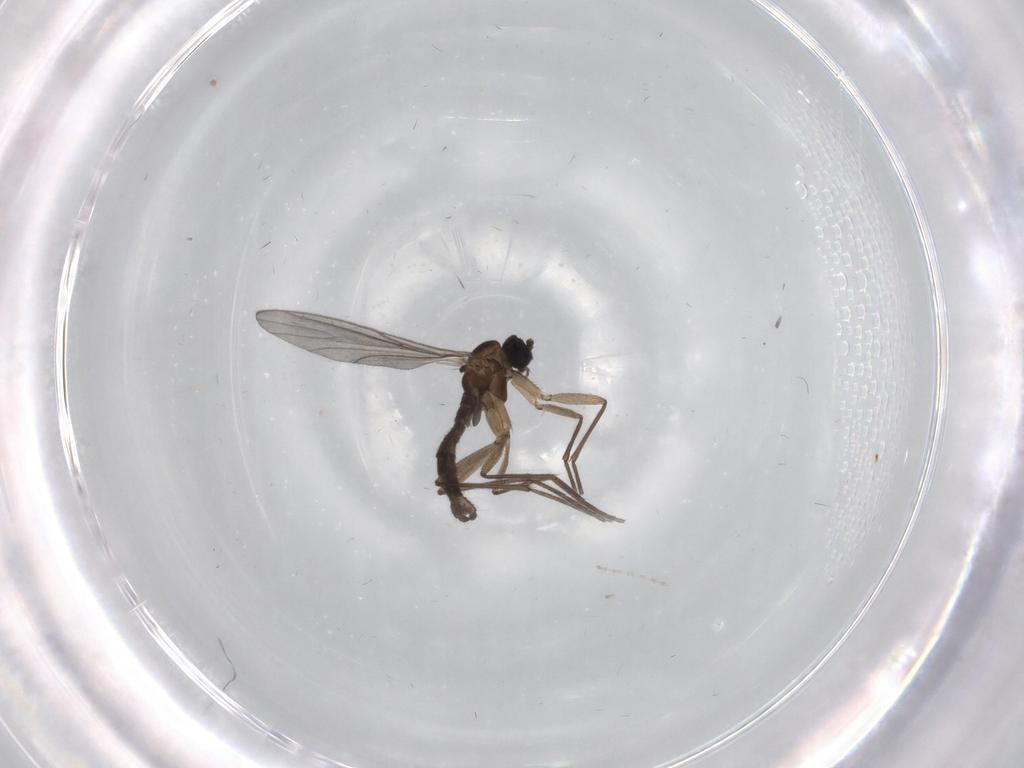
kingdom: Animalia
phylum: Arthropoda
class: Insecta
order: Diptera
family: Sciaridae
